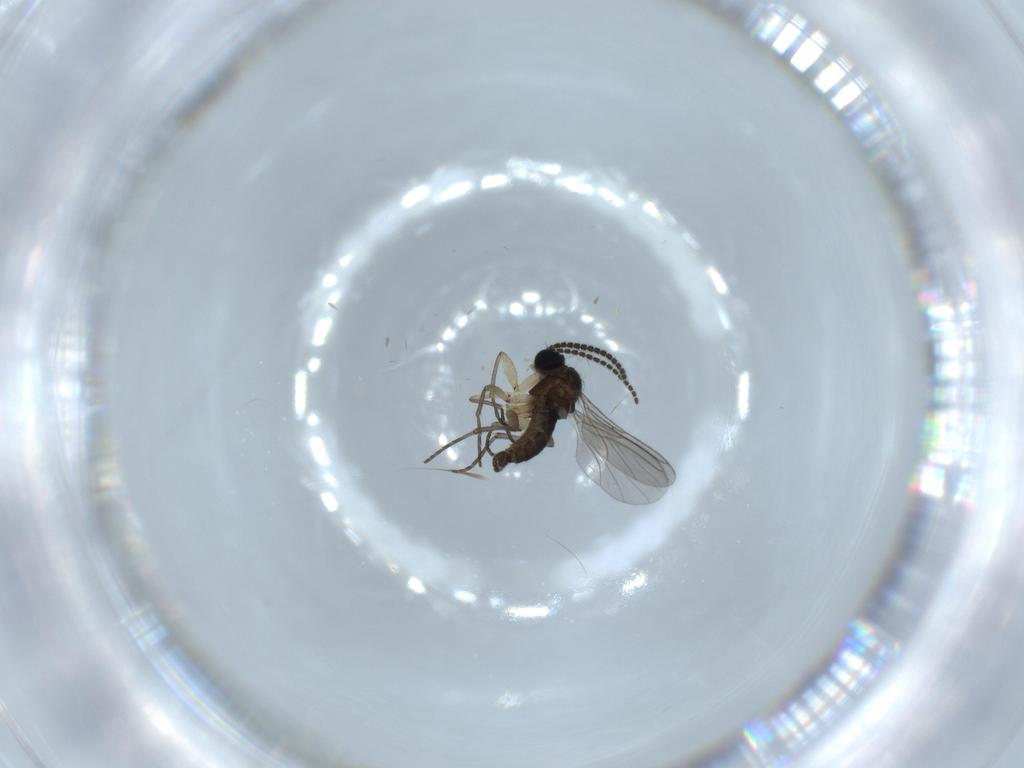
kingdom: Animalia
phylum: Arthropoda
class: Insecta
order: Diptera
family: Sciaridae
